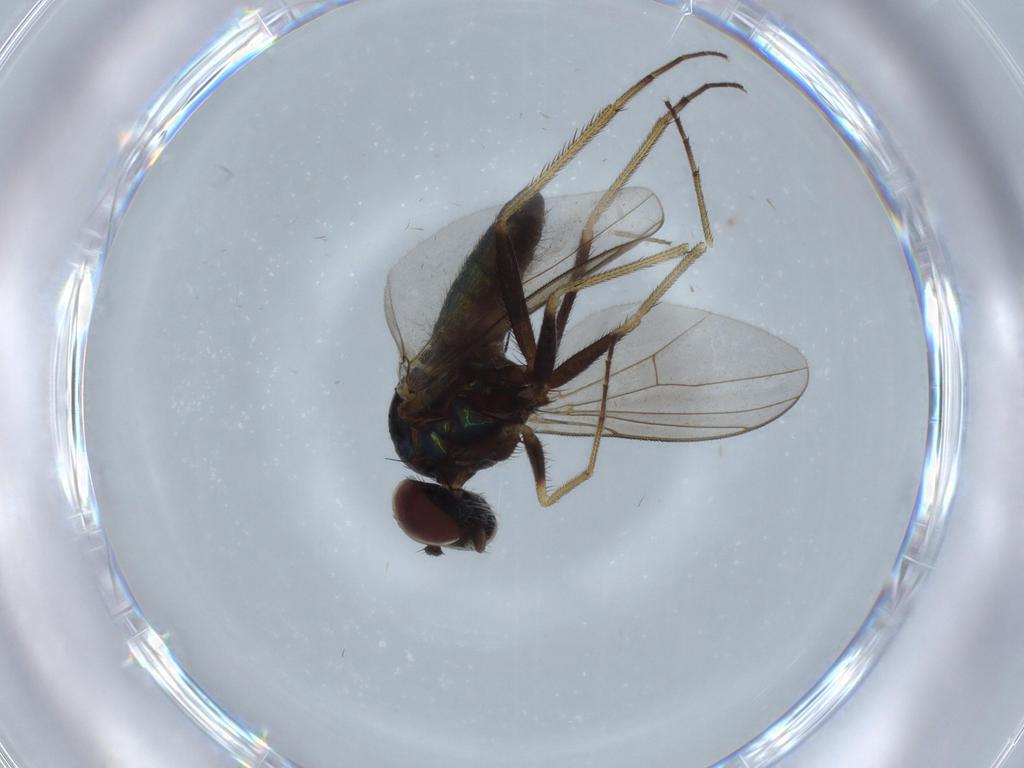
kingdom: Animalia
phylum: Arthropoda
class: Insecta
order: Diptera
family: Dolichopodidae
